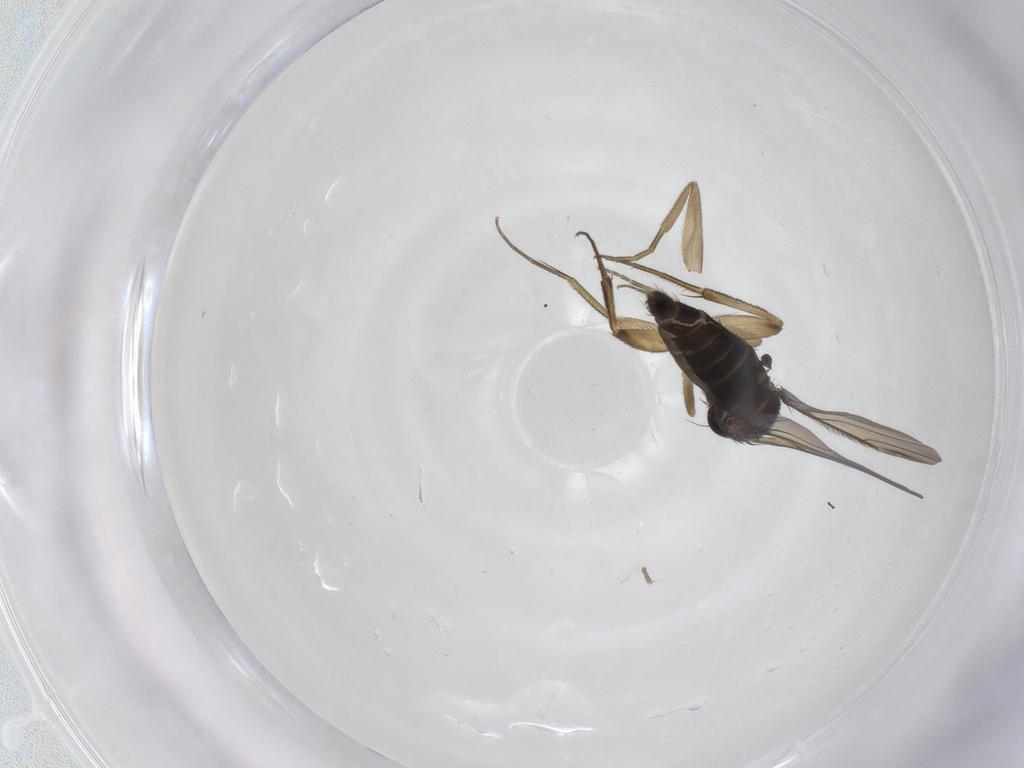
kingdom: Animalia
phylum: Arthropoda
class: Insecta
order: Diptera
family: Phoridae
